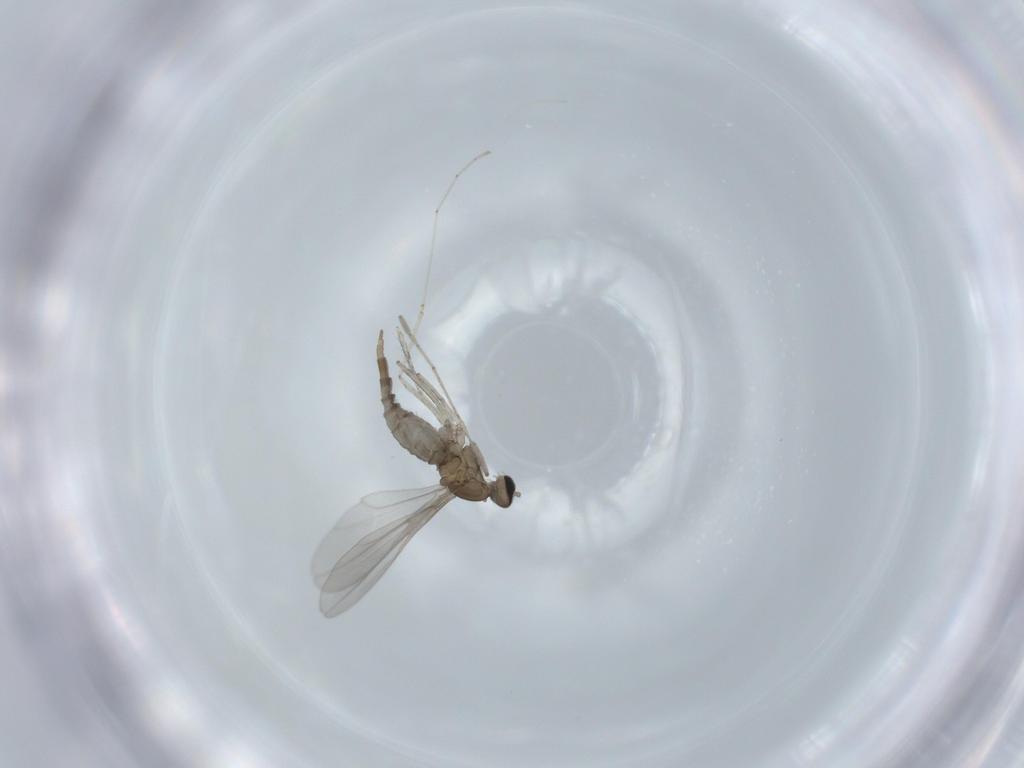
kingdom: Animalia
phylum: Arthropoda
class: Insecta
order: Diptera
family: Cecidomyiidae
